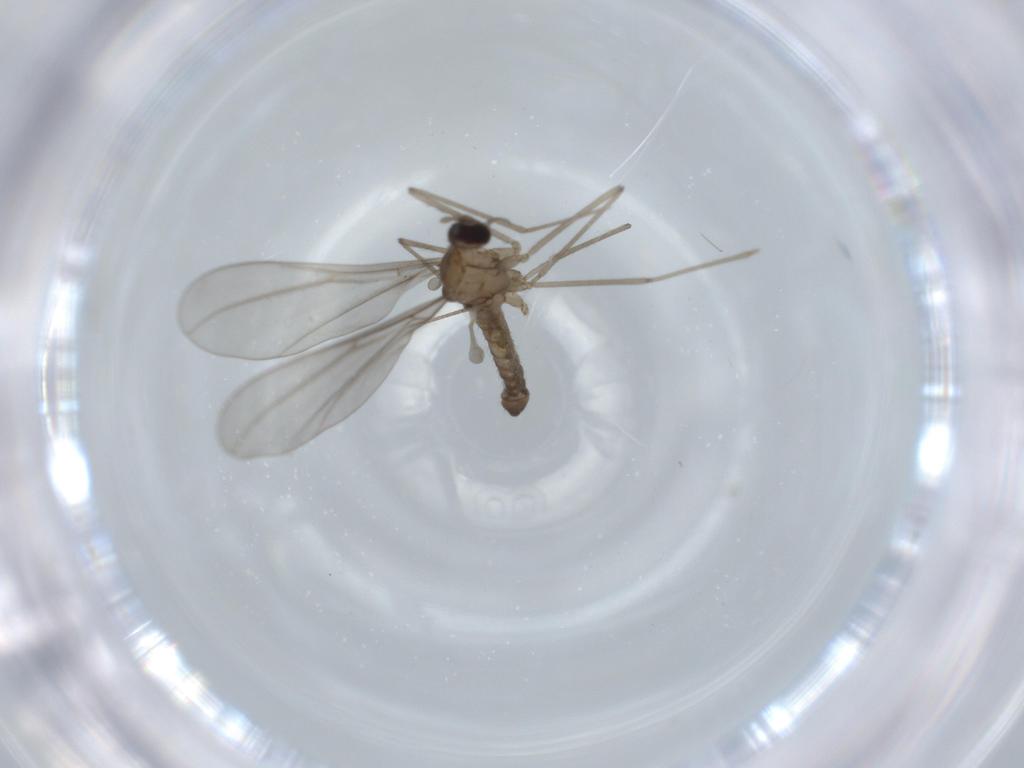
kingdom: Animalia
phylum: Arthropoda
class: Insecta
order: Diptera
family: Cecidomyiidae
